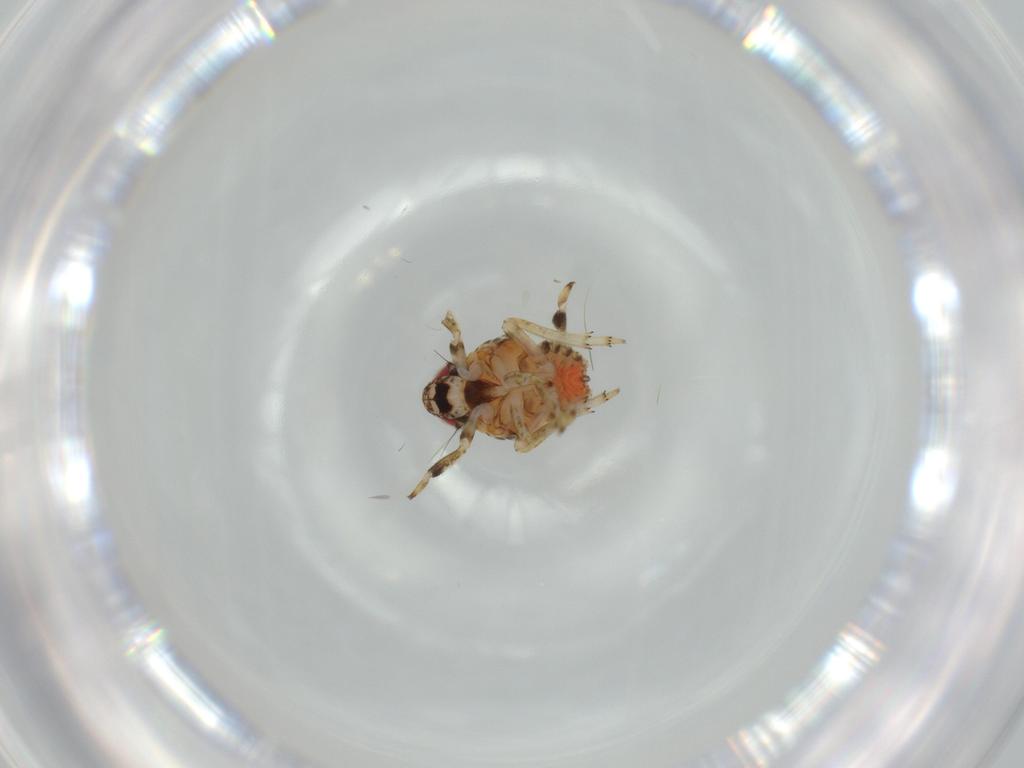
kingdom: Animalia
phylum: Arthropoda
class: Insecta
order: Hemiptera
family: Issidae
